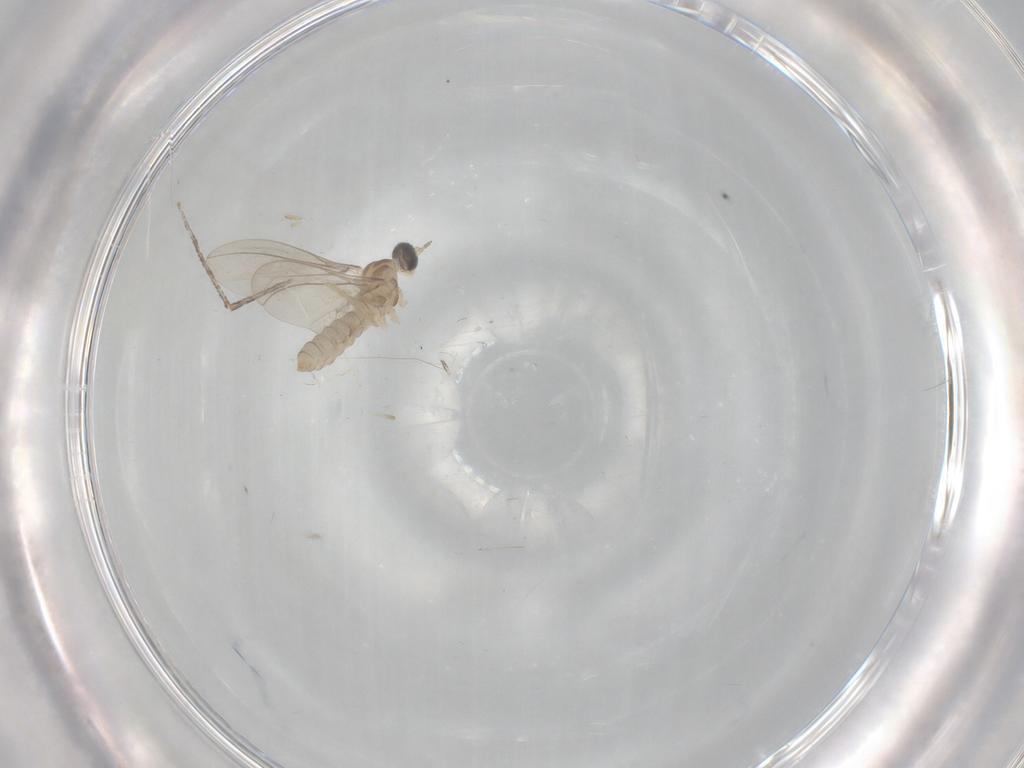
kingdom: Animalia
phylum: Arthropoda
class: Insecta
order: Diptera
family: Cecidomyiidae
